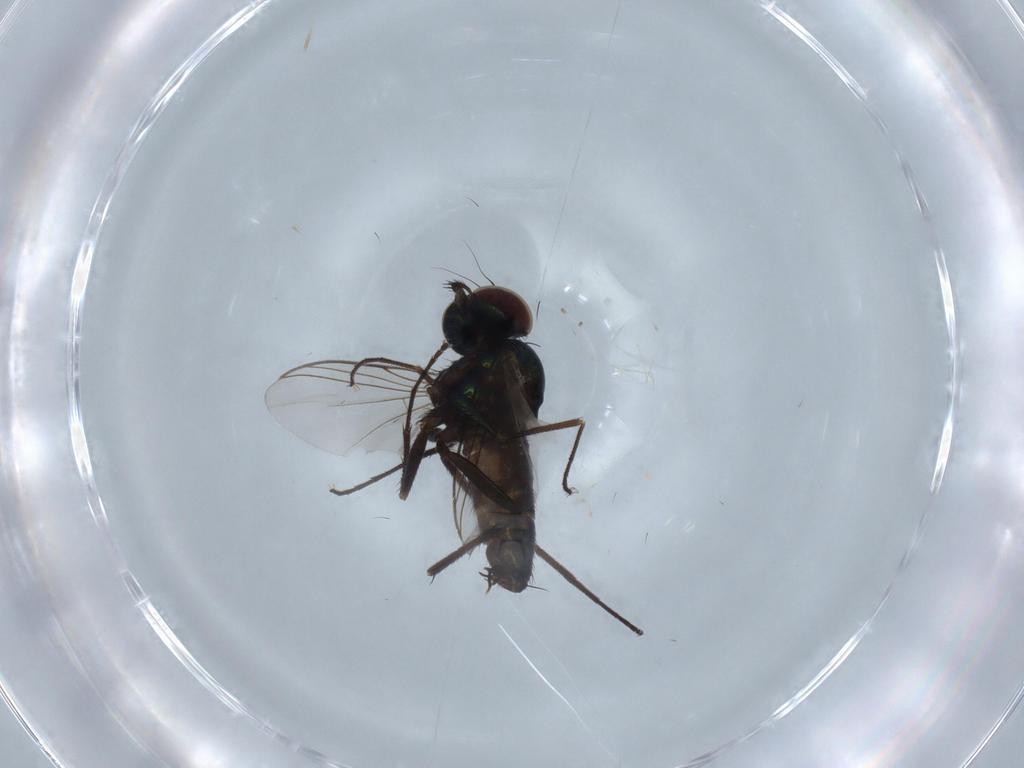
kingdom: Animalia
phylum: Arthropoda
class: Insecta
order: Diptera
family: Dolichopodidae
